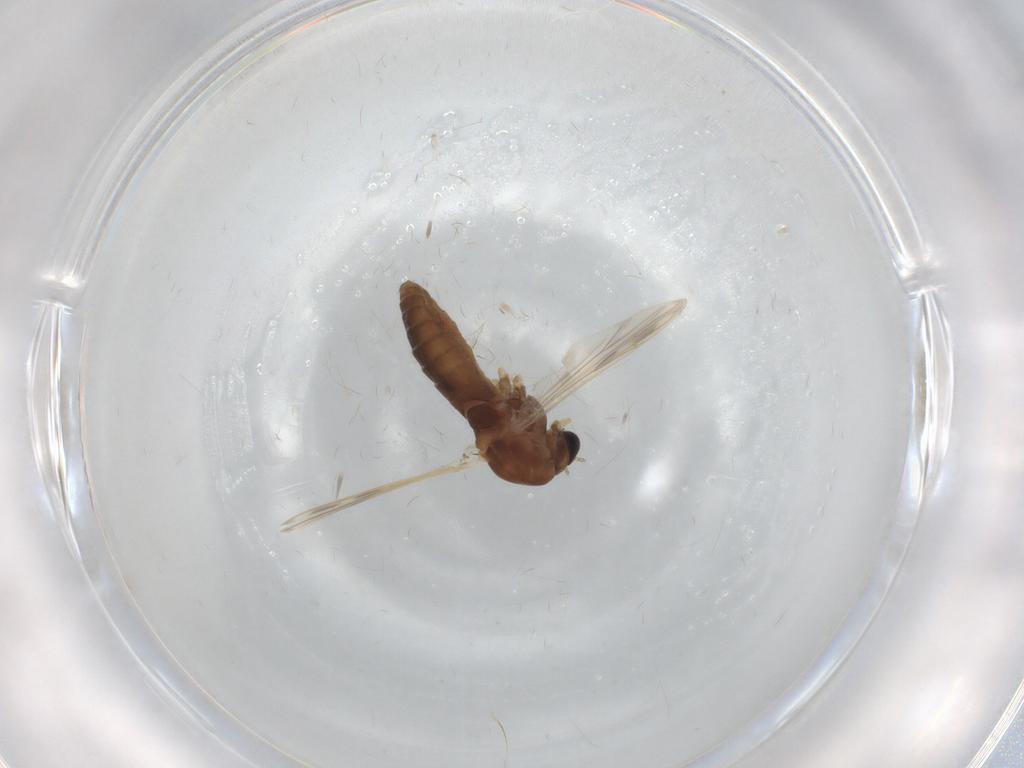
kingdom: Animalia
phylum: Arthropoda
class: Insecta
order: Diptera
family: Chironomidae
